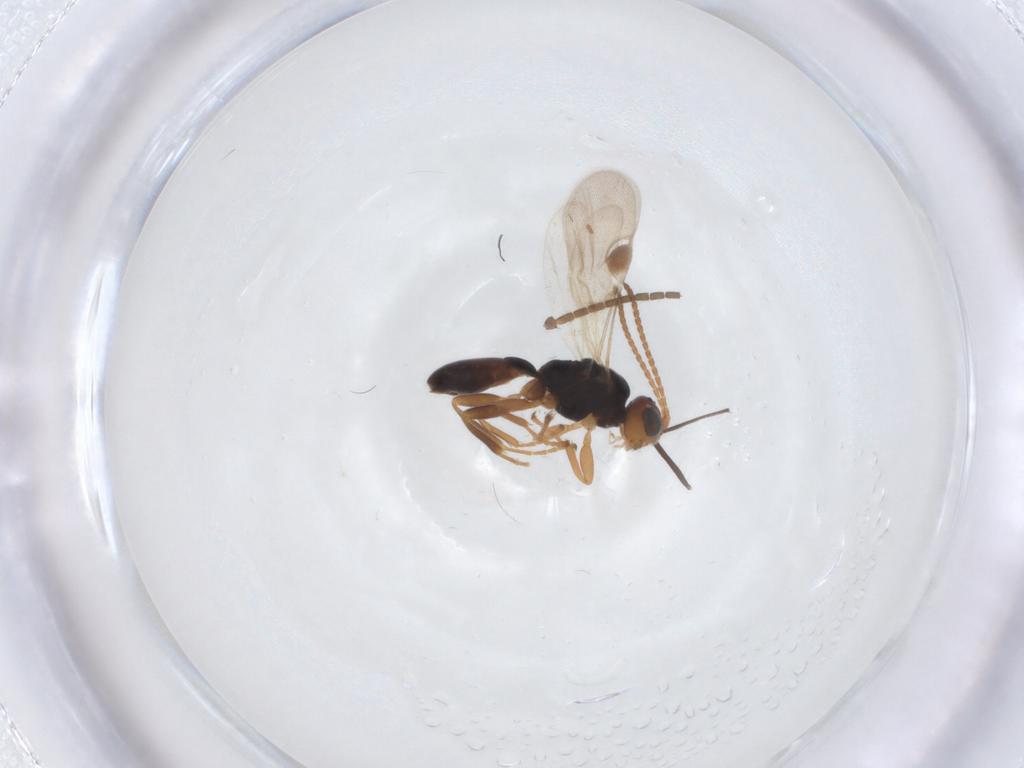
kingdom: Animalia
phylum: Arthropoda
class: Insecta
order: Hymenoptera
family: Braconidae
